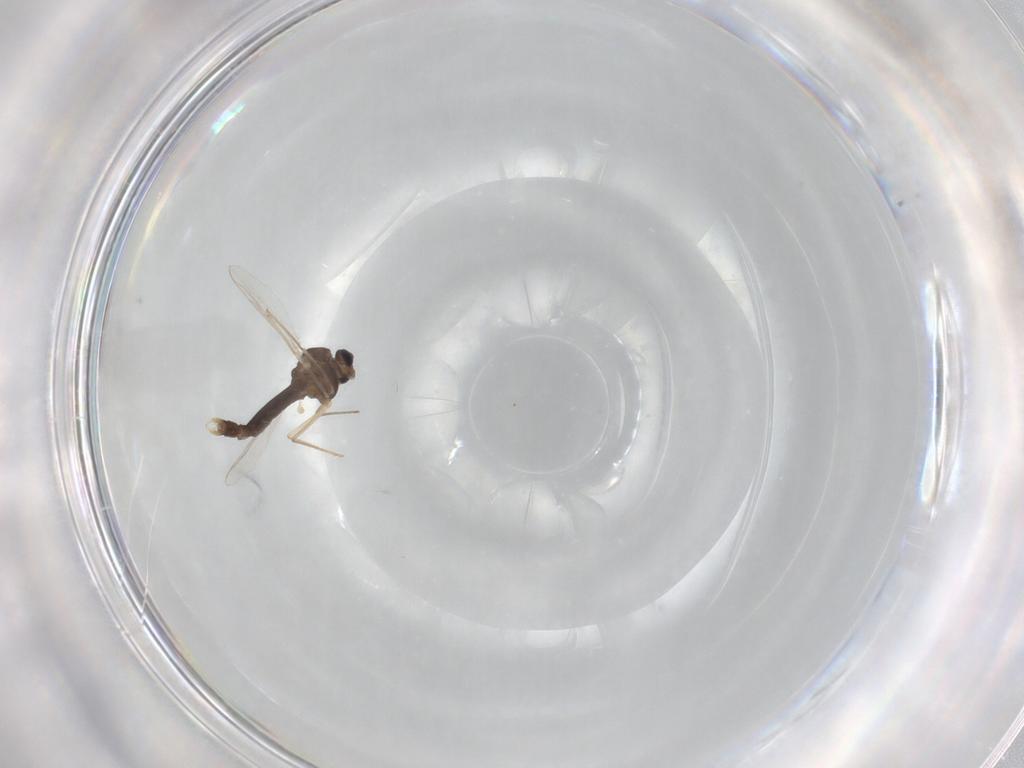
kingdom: Animalia
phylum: Arthropoda
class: Insecta
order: Diptera
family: Chironomidae
